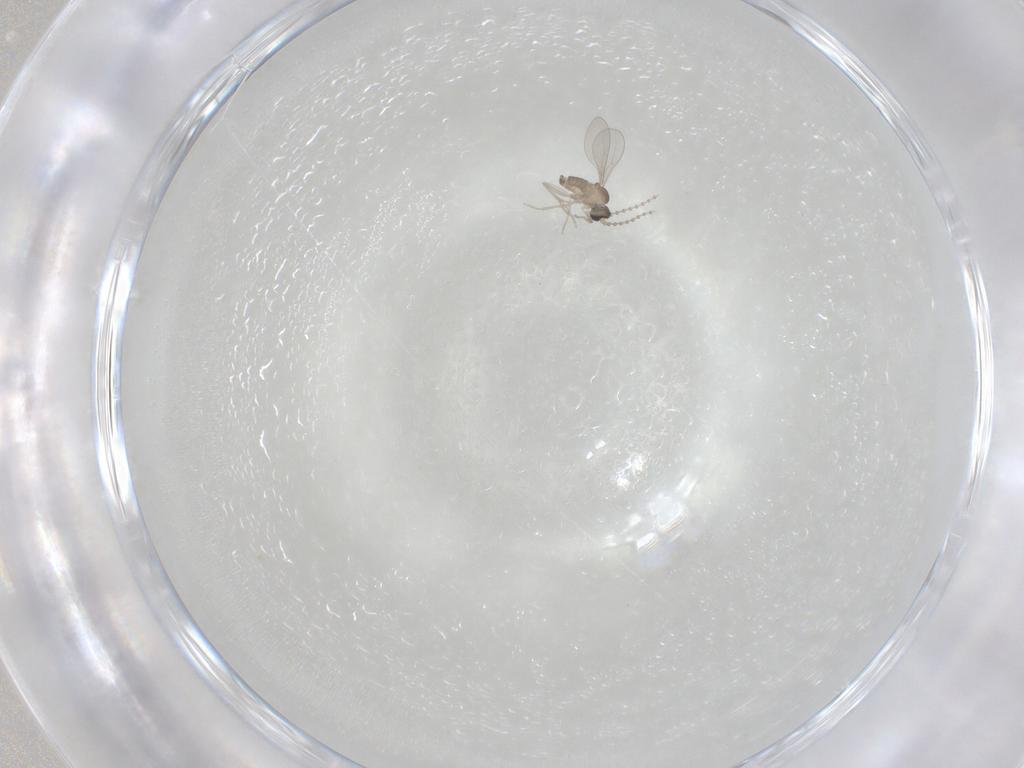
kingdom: Animalia
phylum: Arthropoda
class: Insecta
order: Diptera
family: Cecidomyiidae
